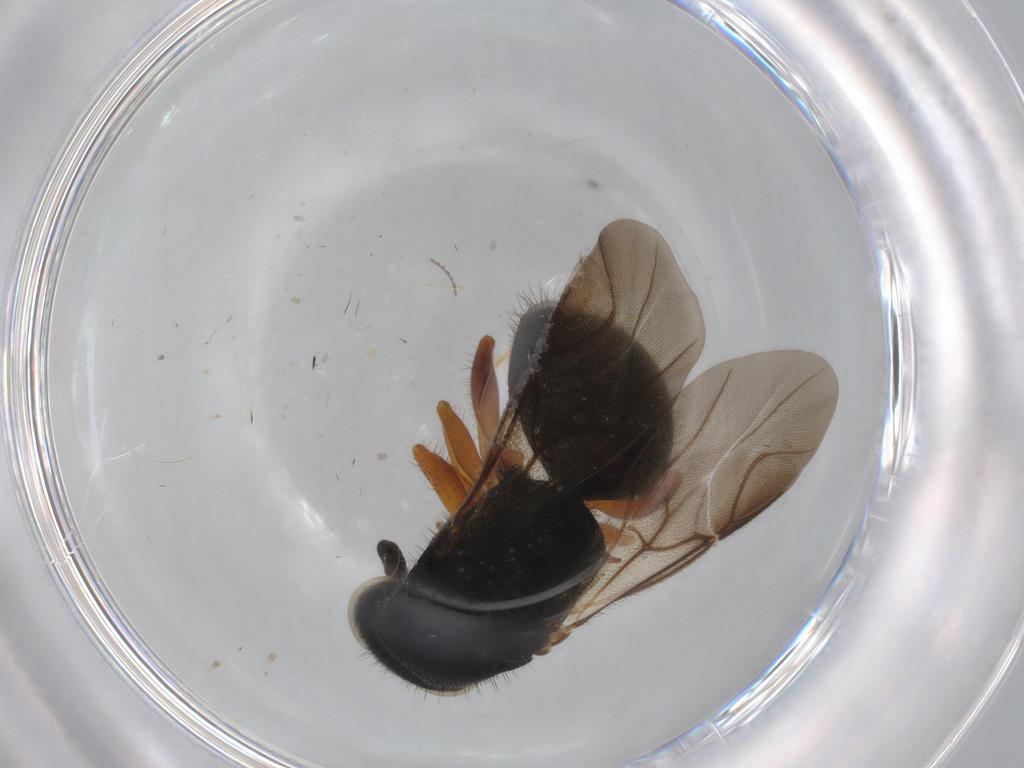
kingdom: Animalia
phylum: Arthropoda
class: Insecta
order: Hymenoptera
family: Chrysididae
